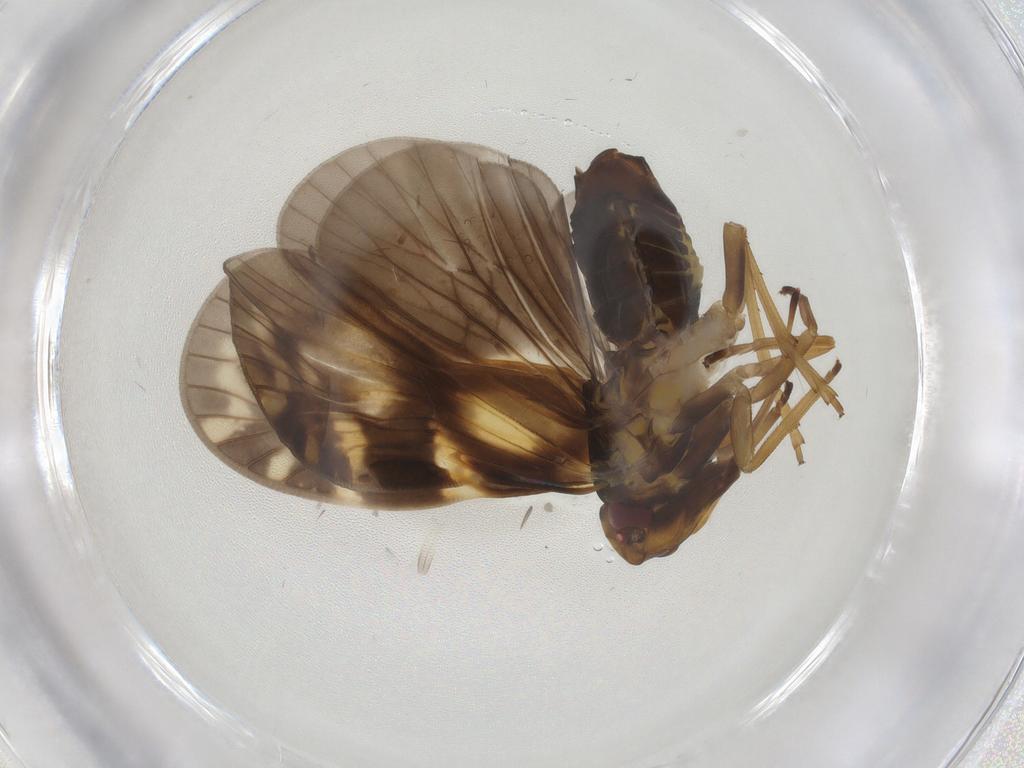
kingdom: Animalia
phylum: Arthropoda
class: Insecta
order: Hemiptera
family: Cixiidae
